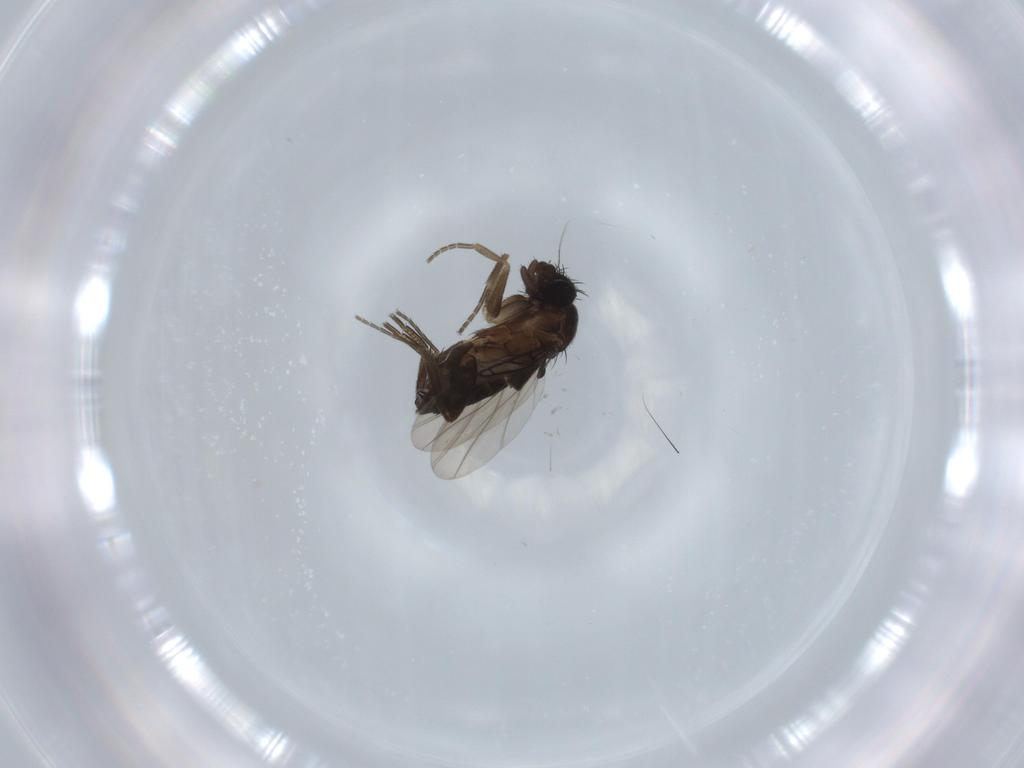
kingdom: Animalia
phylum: Arthropoda
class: Insecta
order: Diptera
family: Phoridae
